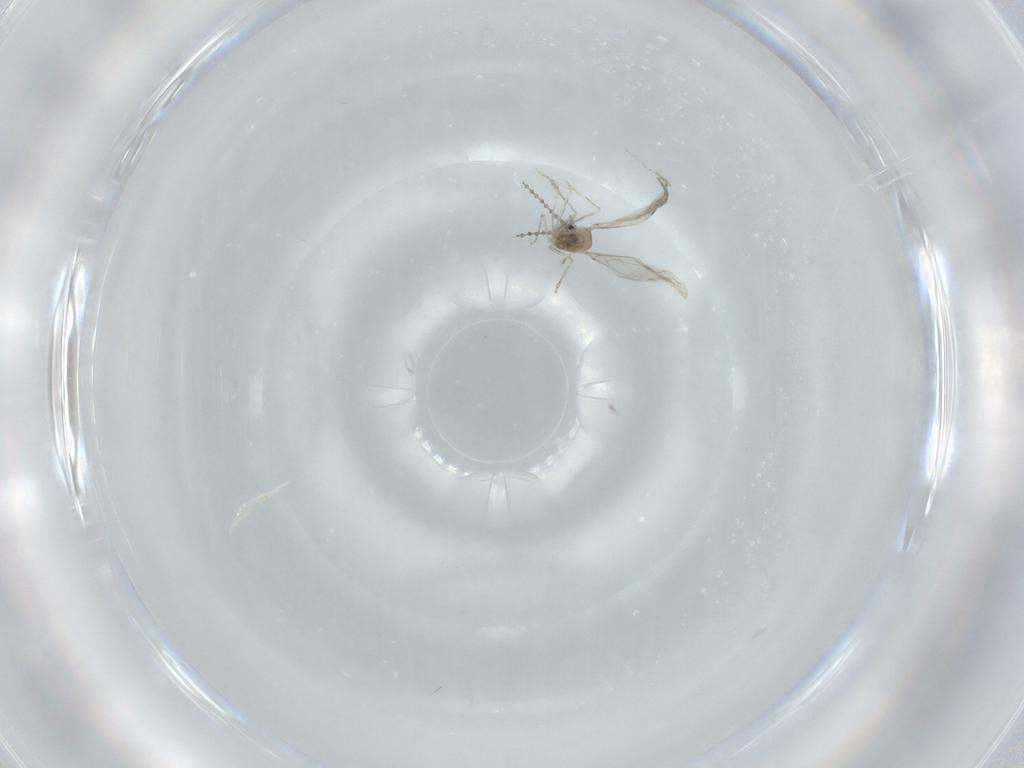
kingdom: Animalia
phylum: Arthropoda
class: Insecta
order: Diptera
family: Cecidomyiidae
